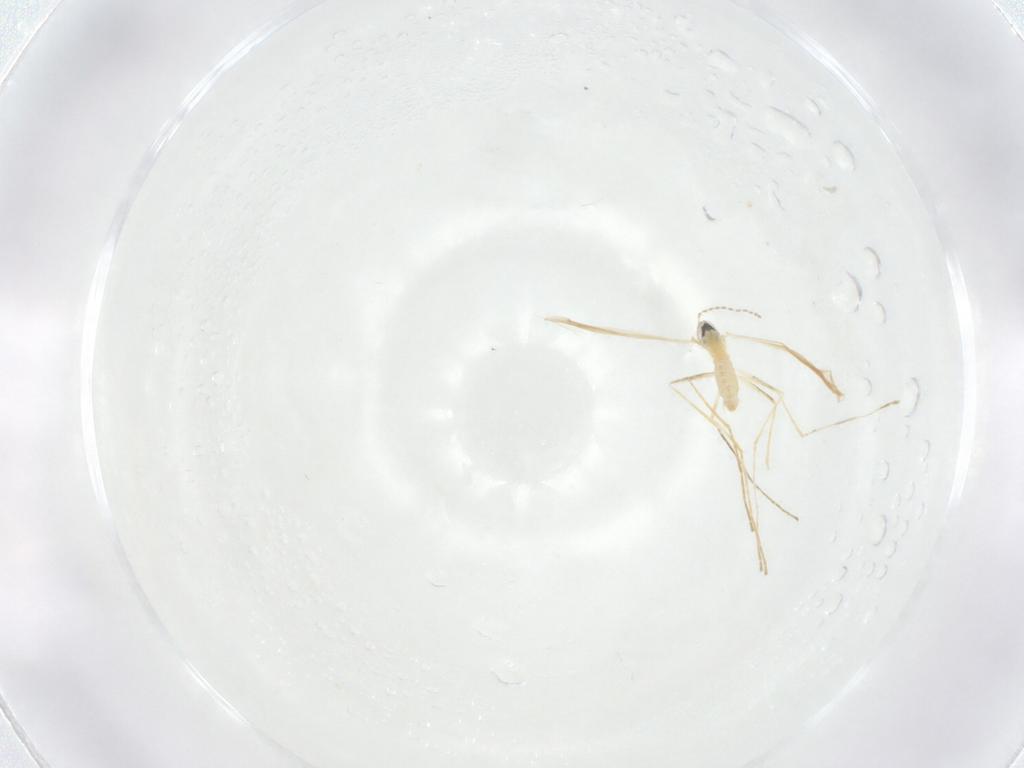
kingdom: Animalia
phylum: Arthropoda
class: Insecta
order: Diptera
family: Cecidomyiidae
